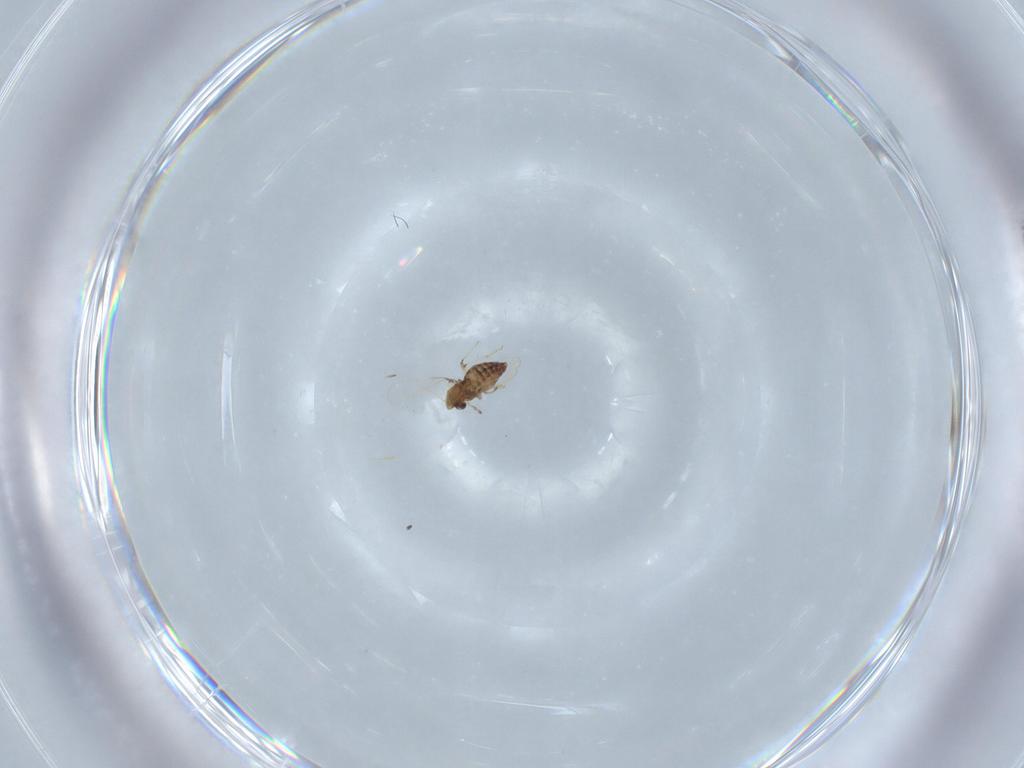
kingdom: Animalia
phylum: Arthropoda
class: Insecta
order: Diptera
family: Chironomidae
